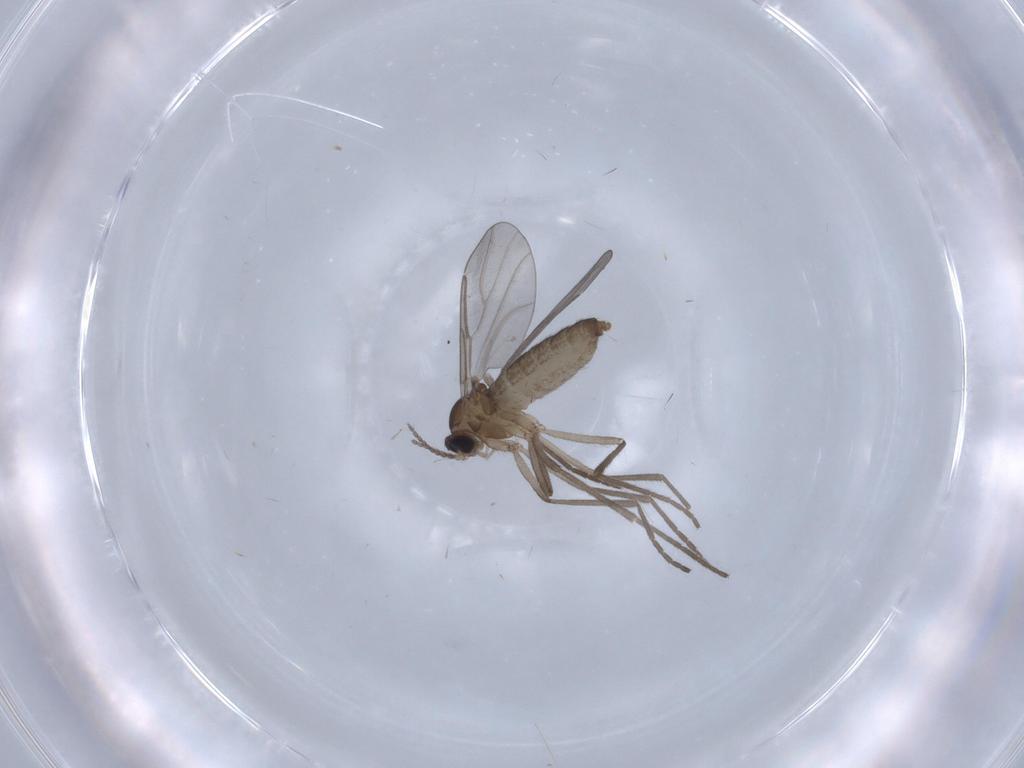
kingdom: Animalia
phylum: Arthropoda
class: Insecta
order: Diptera
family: Cecidomyiidae
